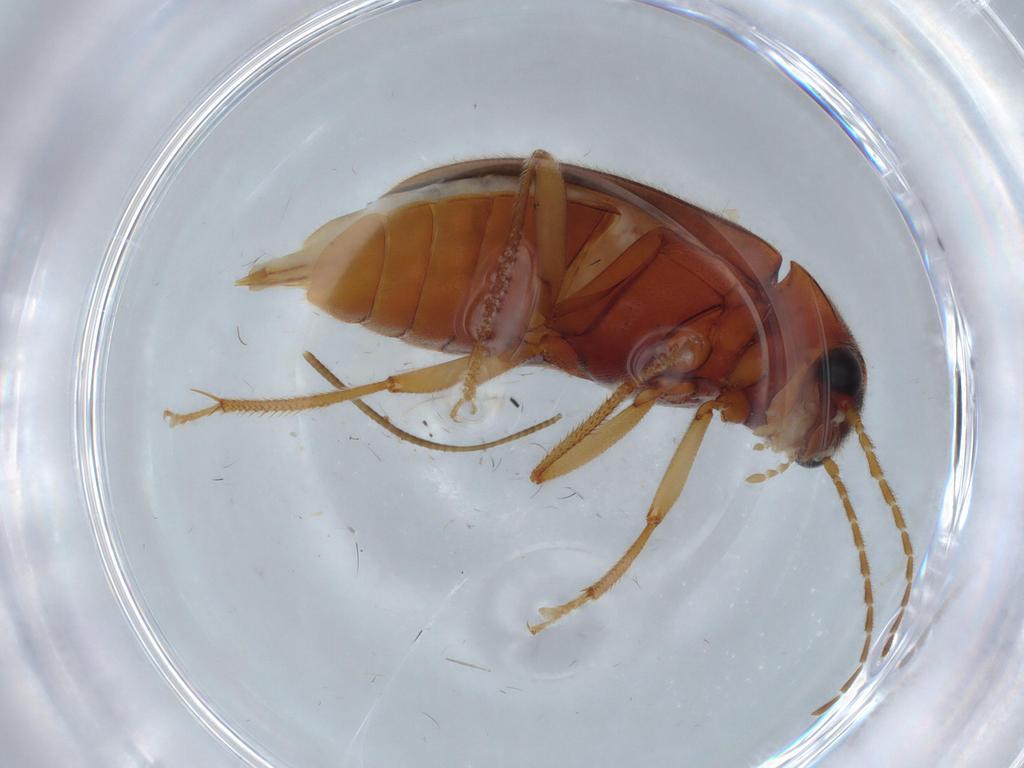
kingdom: Animalia
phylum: Arthropoda
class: Insecta
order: Coleoptera
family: Ptilodactylidae
